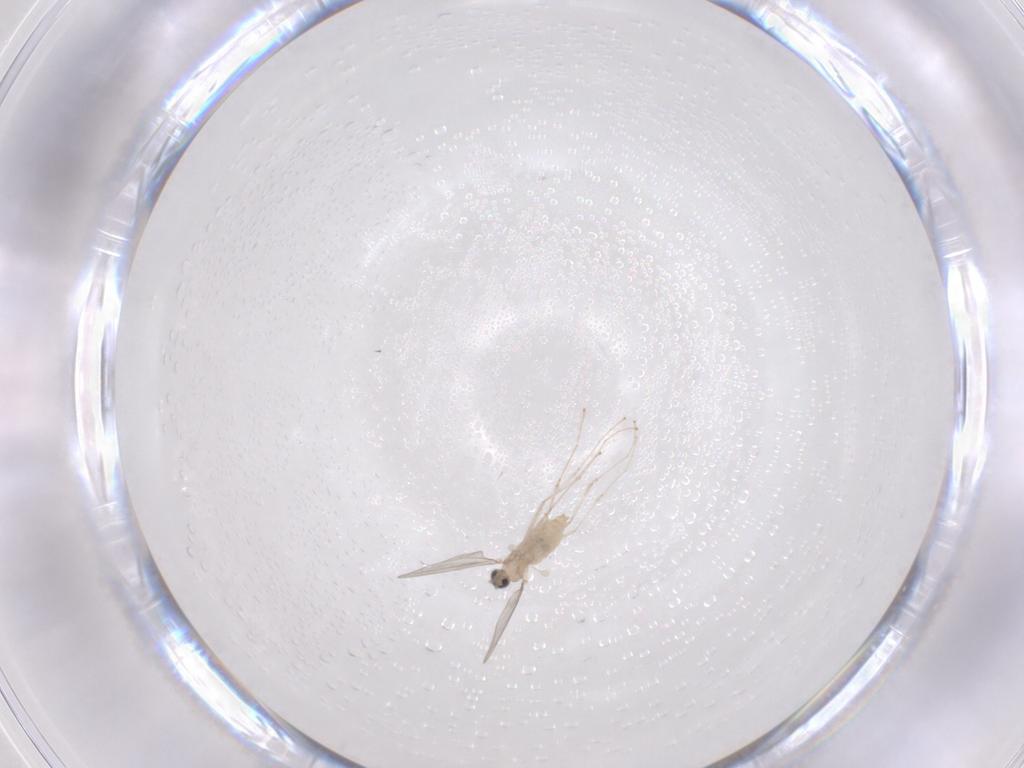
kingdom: Animalia
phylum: Arthropoda
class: Insecta
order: Diptera
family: Cecidomyiidae
